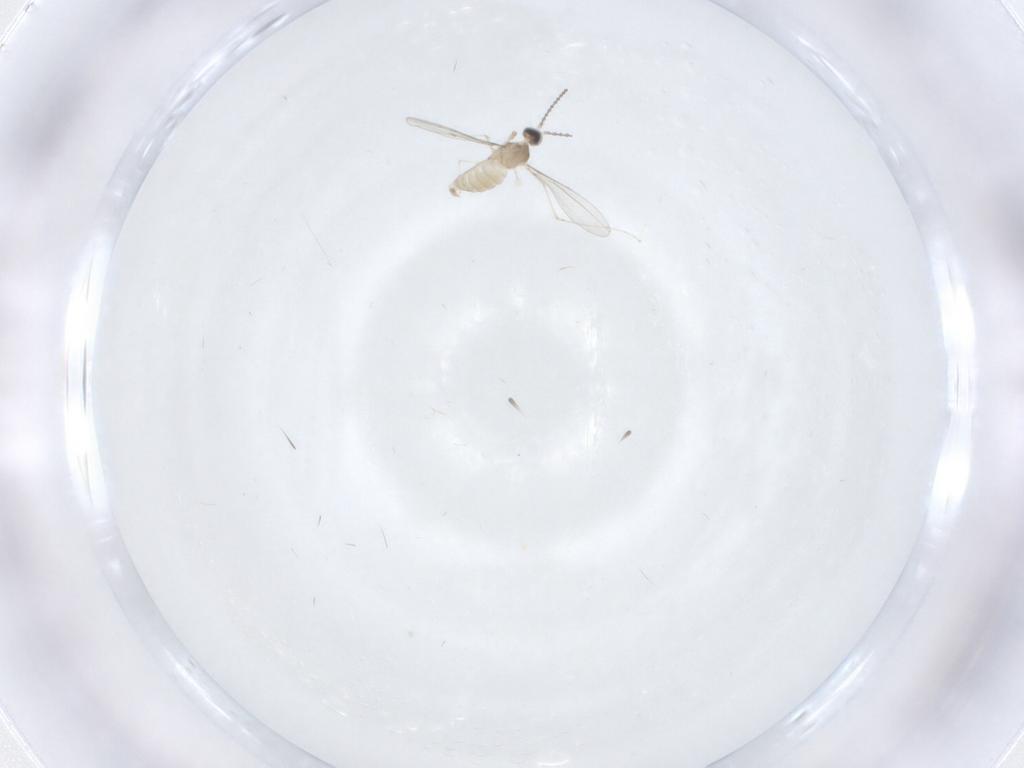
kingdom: Animalia
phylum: Arthropoda
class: Insecta
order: Diptera
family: Cecidomyiidae
